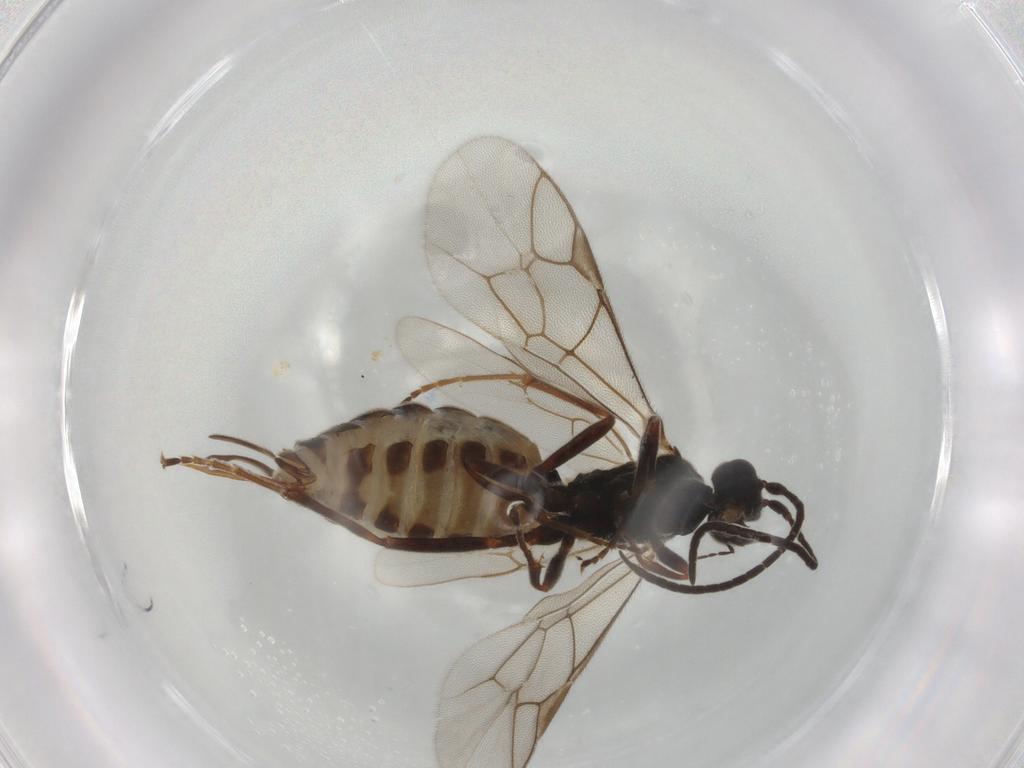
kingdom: Animalia
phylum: Arthropoda
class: Insecta
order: Hymenoptera
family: Ichneumonidae
